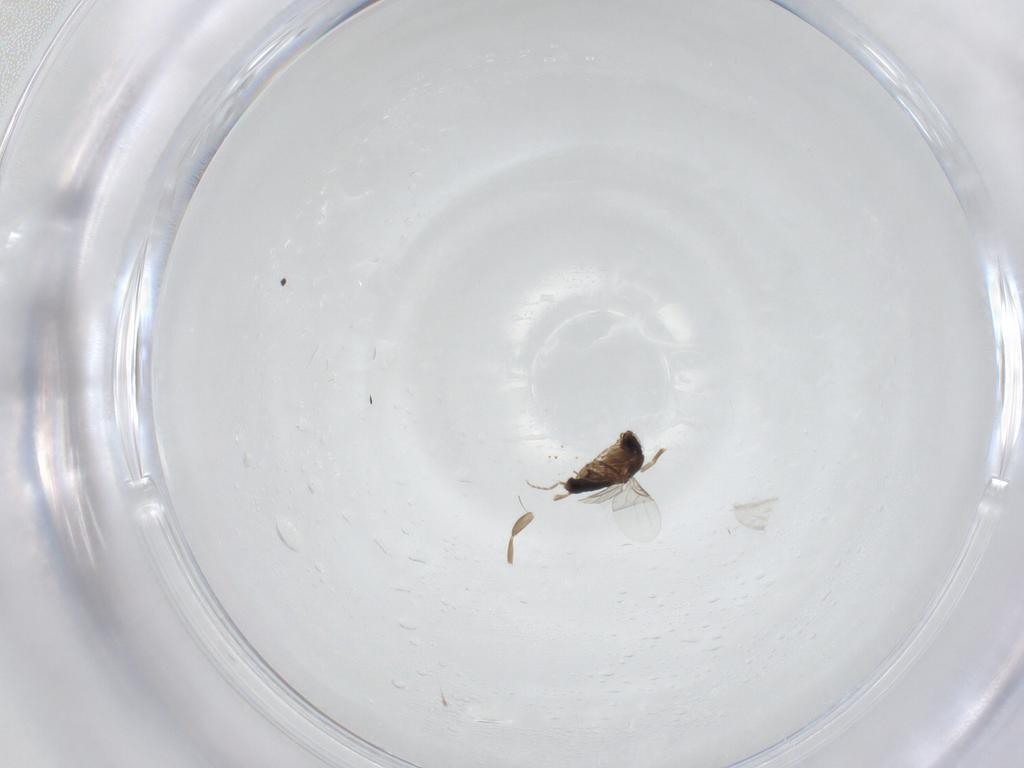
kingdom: Animalia
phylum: Arthropoda
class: Insecta
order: Diptera
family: Phoridae
